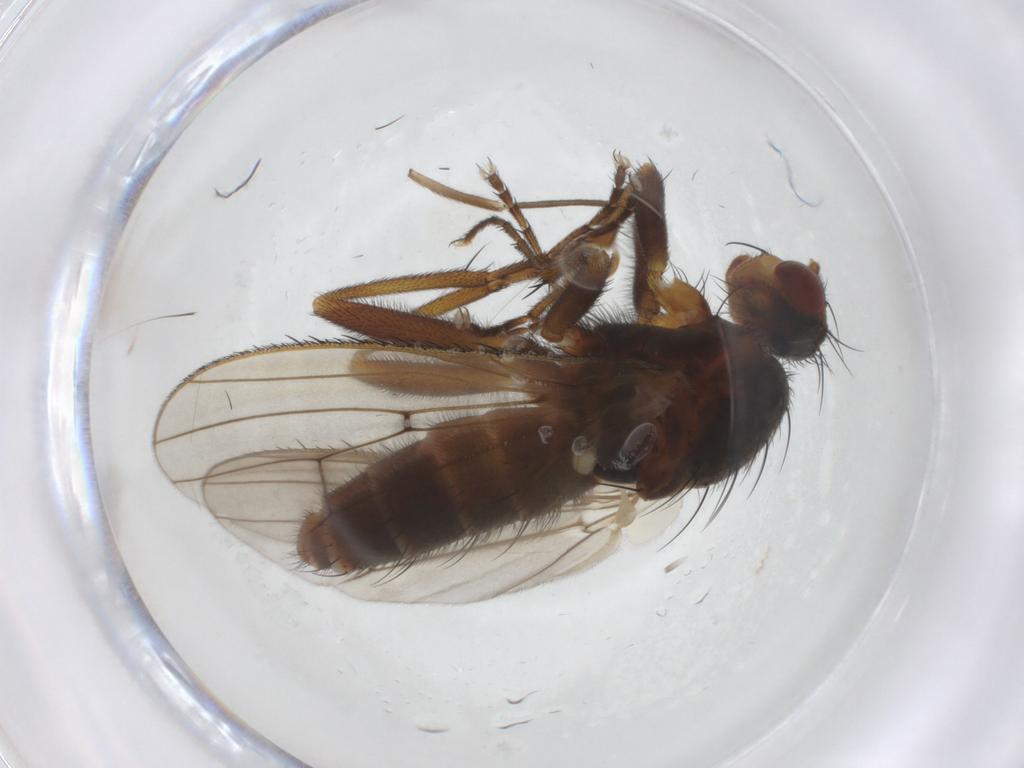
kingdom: Animalia
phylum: Arthropoda
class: Insecta
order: Diptera
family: Heleomyzidae
